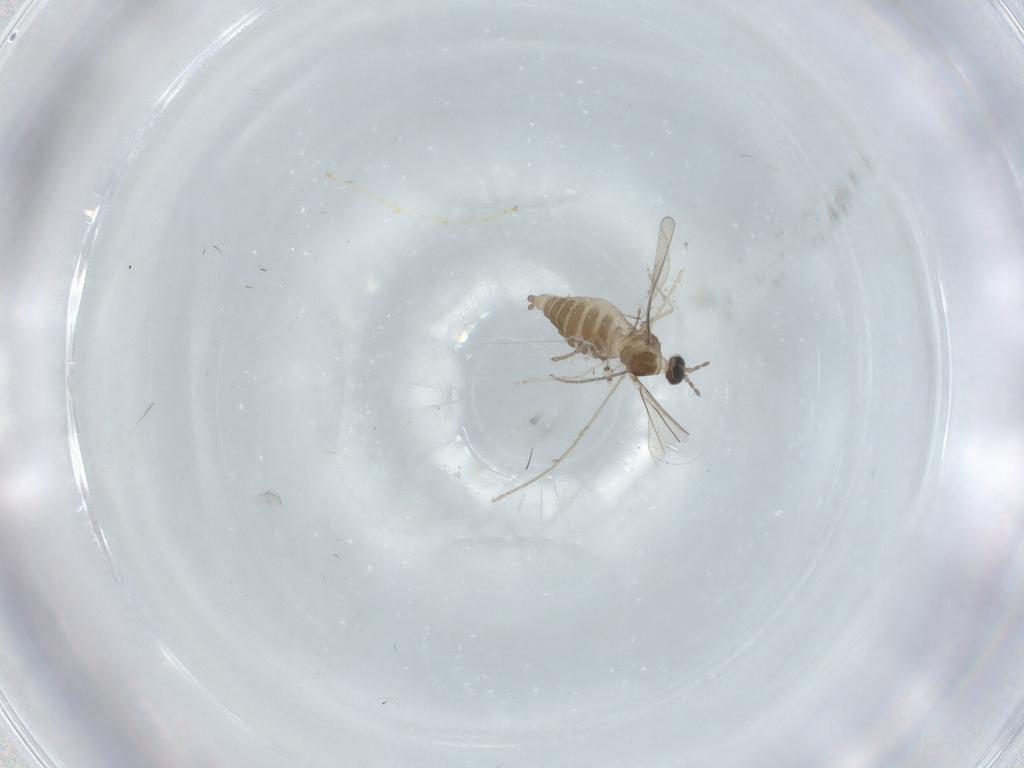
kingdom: Animalia
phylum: Arthropoda
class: Insecta
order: Diptera
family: Cecidomyiidae
